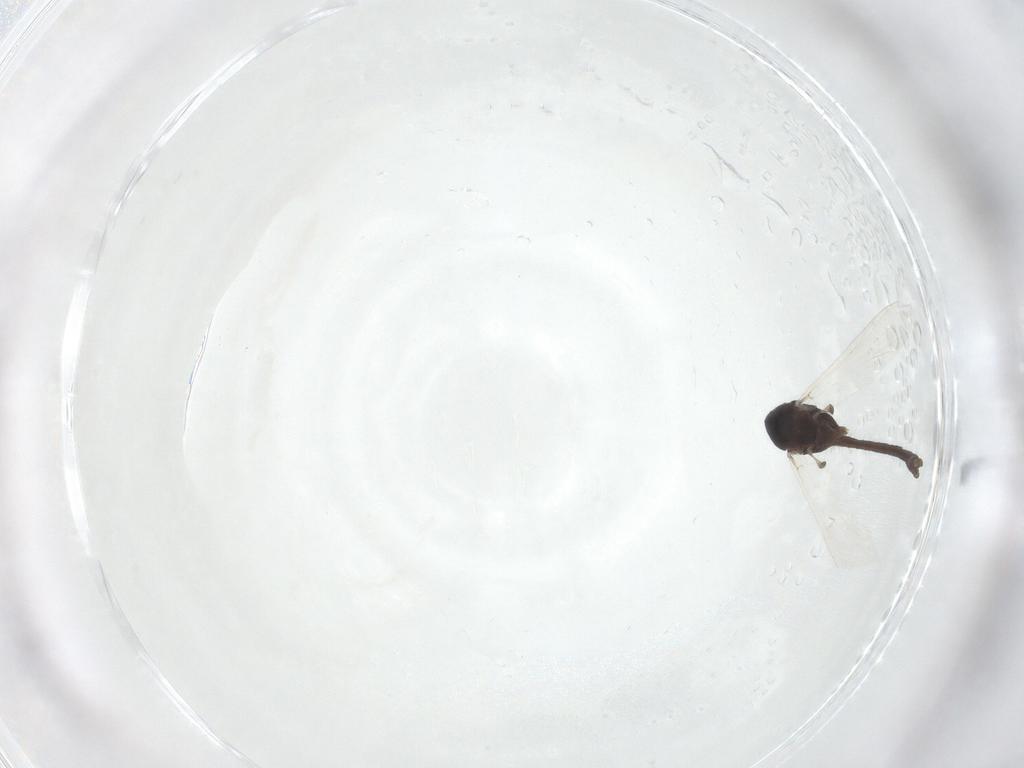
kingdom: Animalia
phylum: Arthropoda
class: Insecta
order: Diptera
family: Chironomidae
